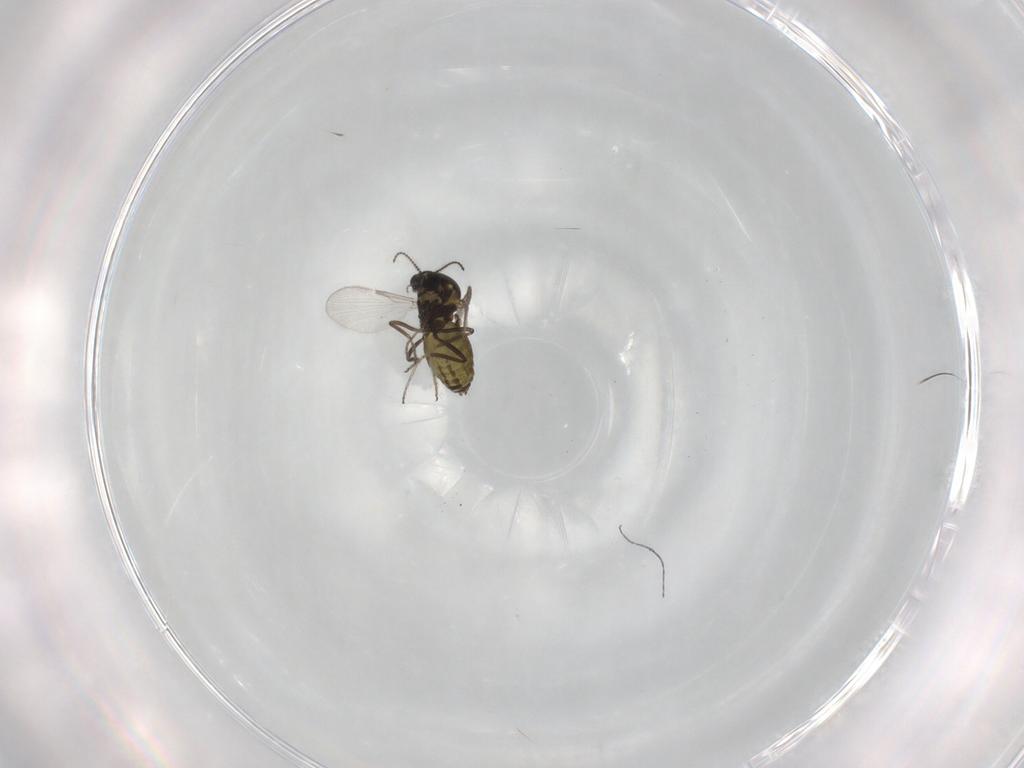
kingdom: Animalia
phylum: Arthropoda
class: Insecta
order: Diptera
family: Ceratopogonidae
